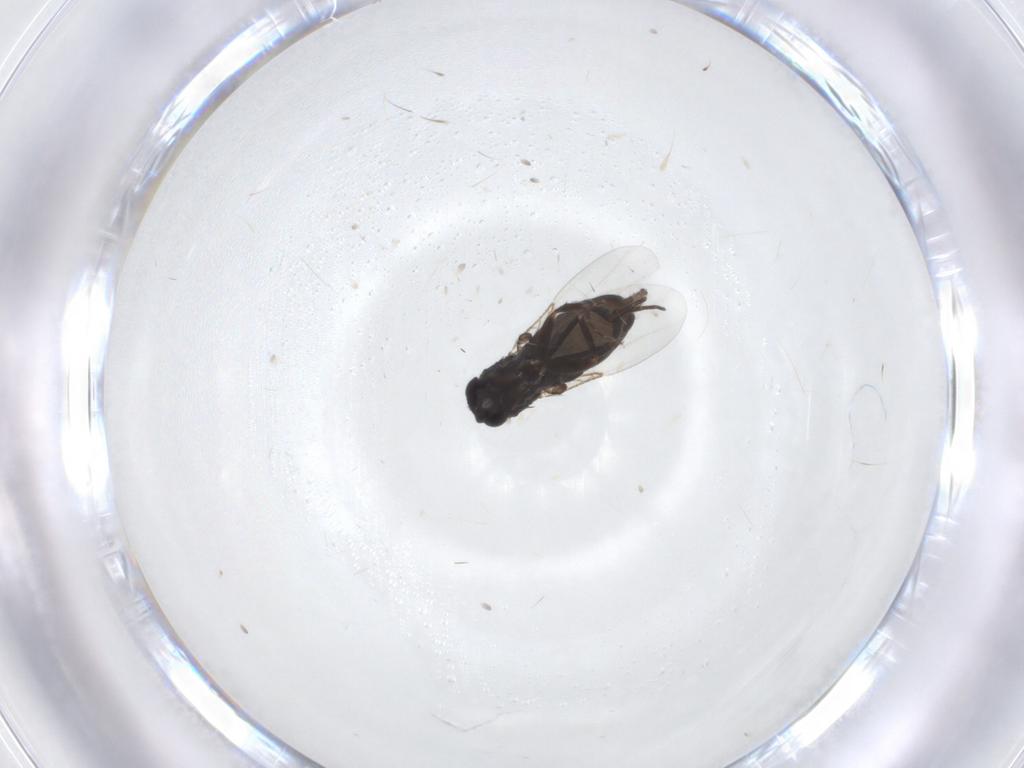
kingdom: Animalia
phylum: Arthropoda
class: Insecta
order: Diptera
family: Phoridae
